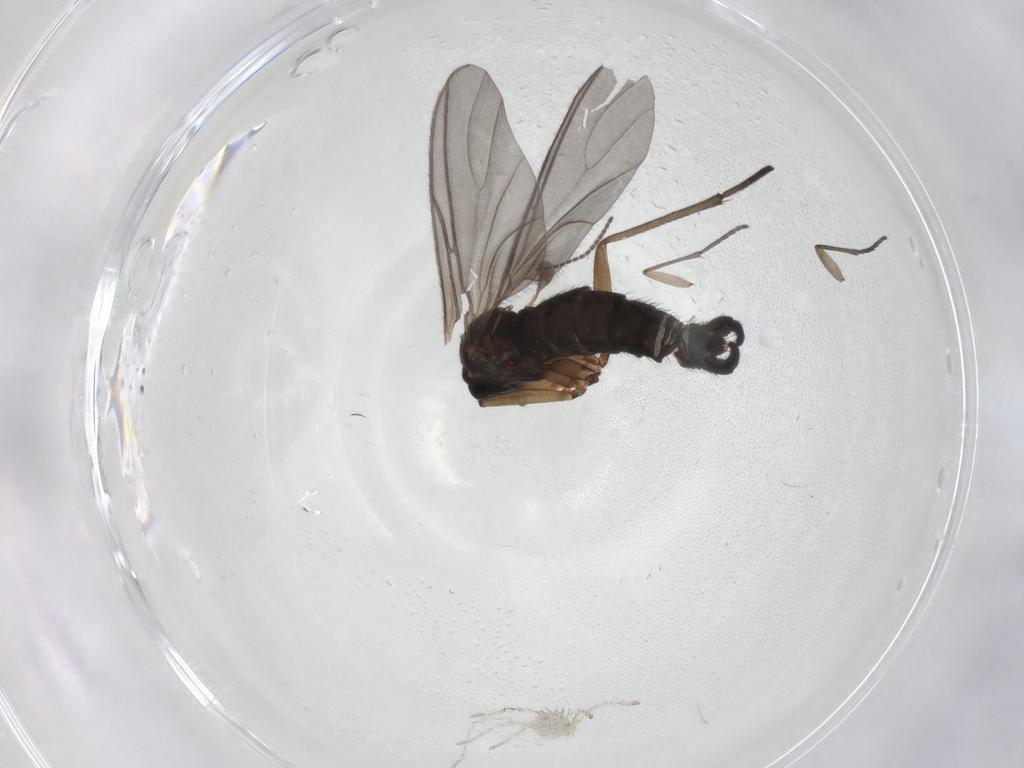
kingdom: Animalia
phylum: Arthropoda
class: Insecta
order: Diptera
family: Sciaridae
